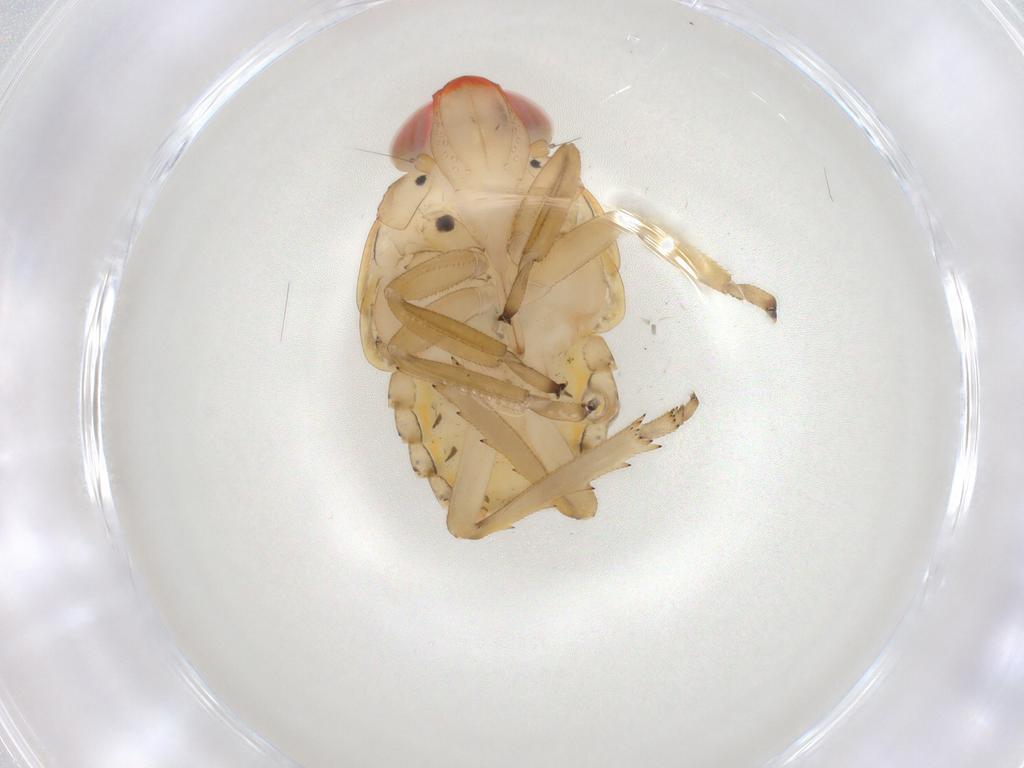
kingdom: Animalia
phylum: Arthropoda
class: Insecta
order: Hemiptera
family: Issidae
